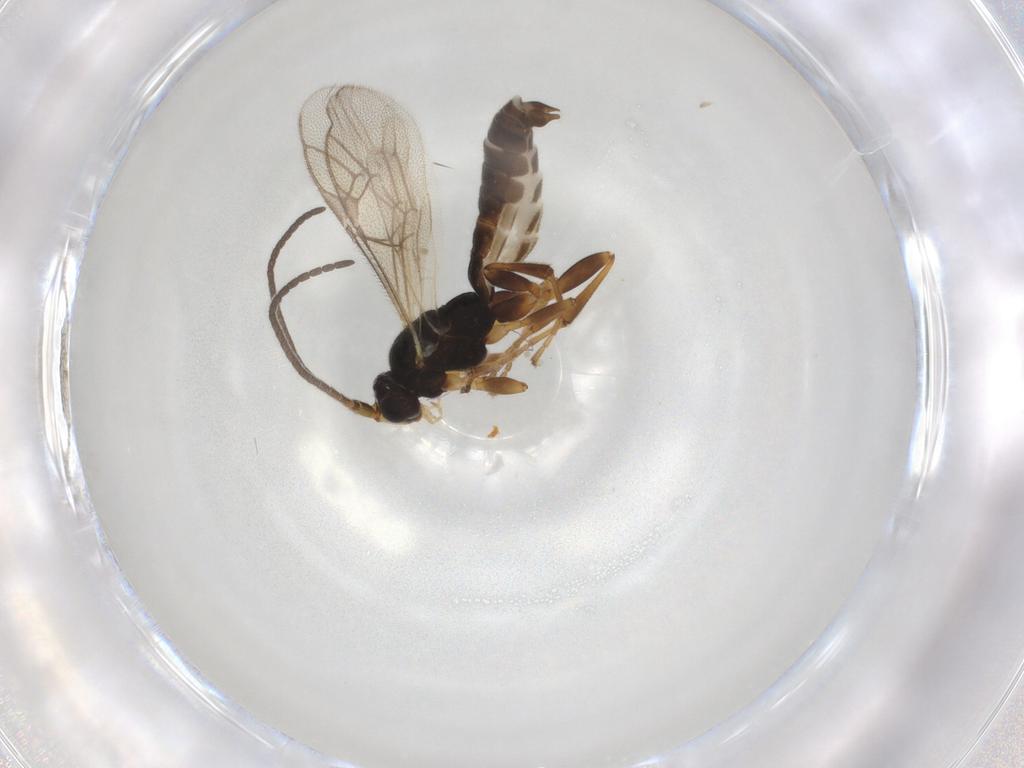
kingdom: Animalia
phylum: Arthropoda
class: Insecta
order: Hymenoptera
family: Ichneumonidae
